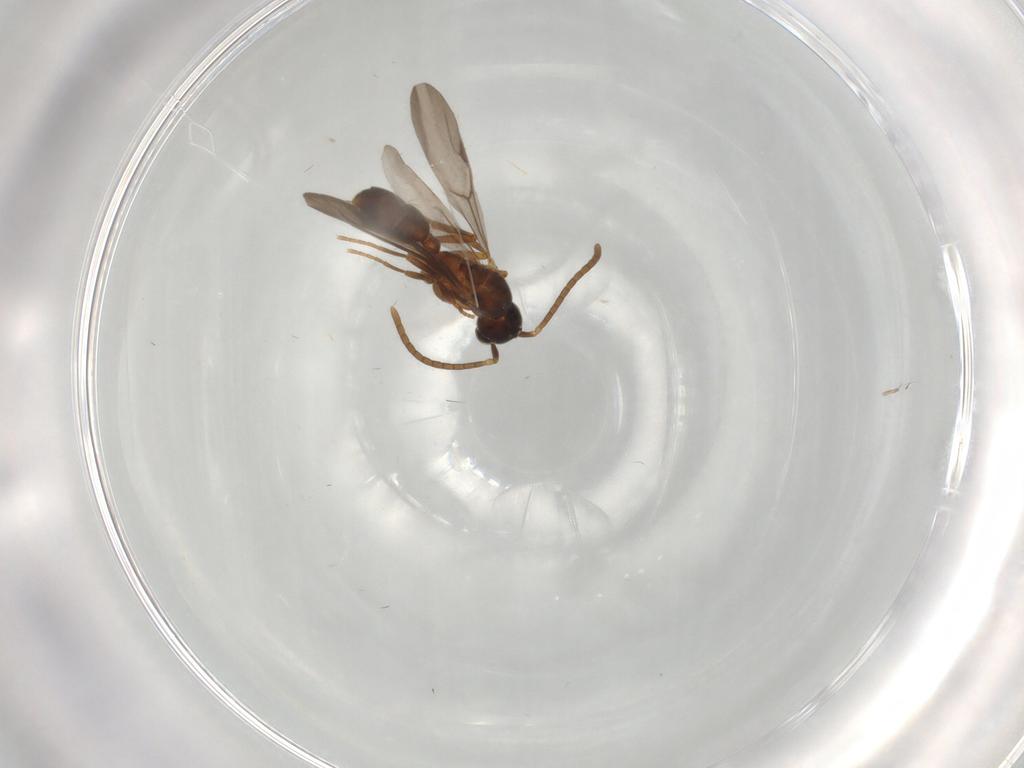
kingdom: Animalia
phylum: Arthropoda
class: Insecta
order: Hymenoptera
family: Formicidae
